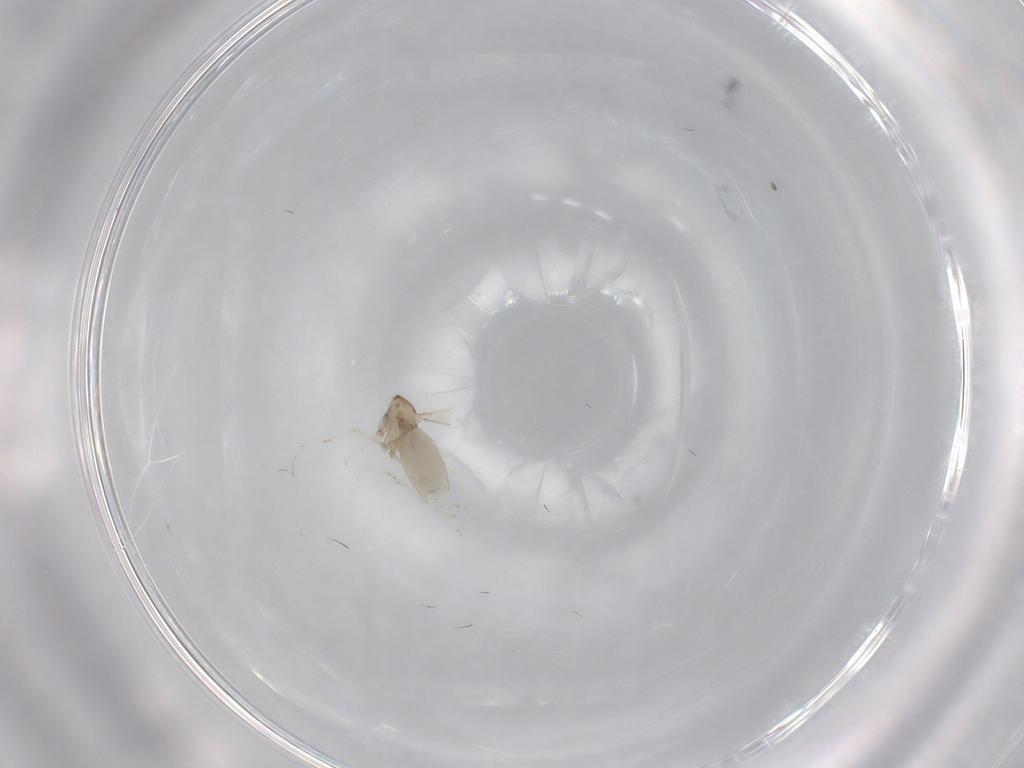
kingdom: Animalia
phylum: Arthropoda
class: Insecta
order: Diptera
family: Cecidomyiidae
